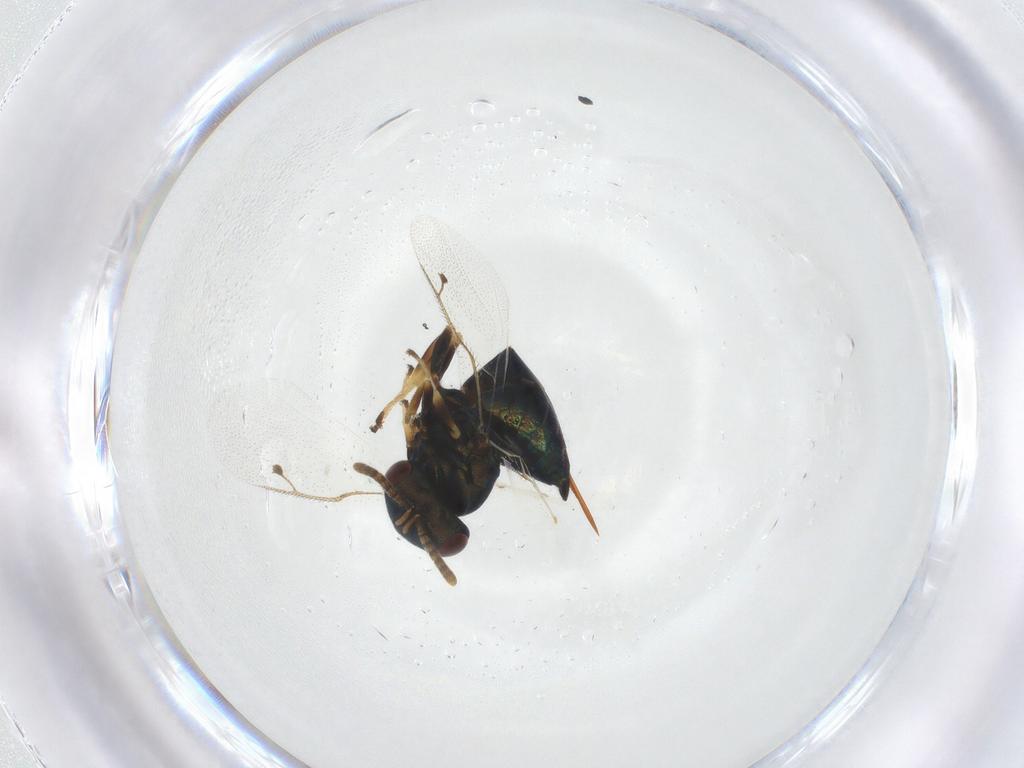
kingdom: Animalia
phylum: Arthropoda
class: Insecta
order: Hymenoptera
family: Pteromalidae
